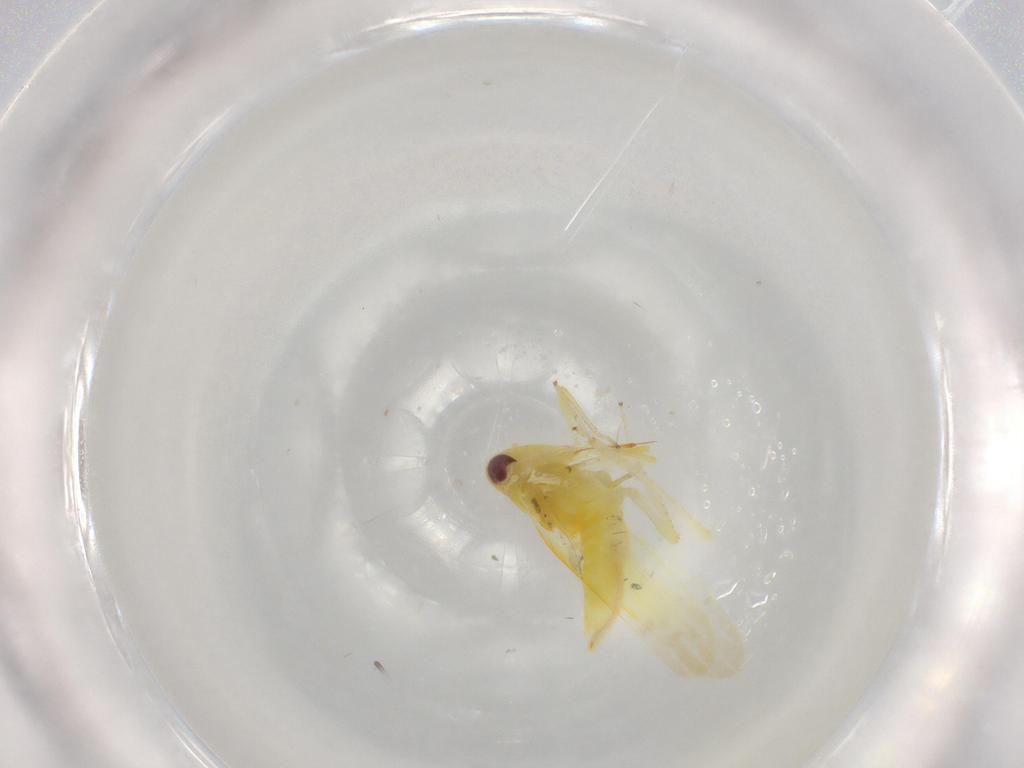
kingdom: Animalia
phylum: Arthropoda
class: Insecta
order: Hemiptera
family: Cicadellidae
